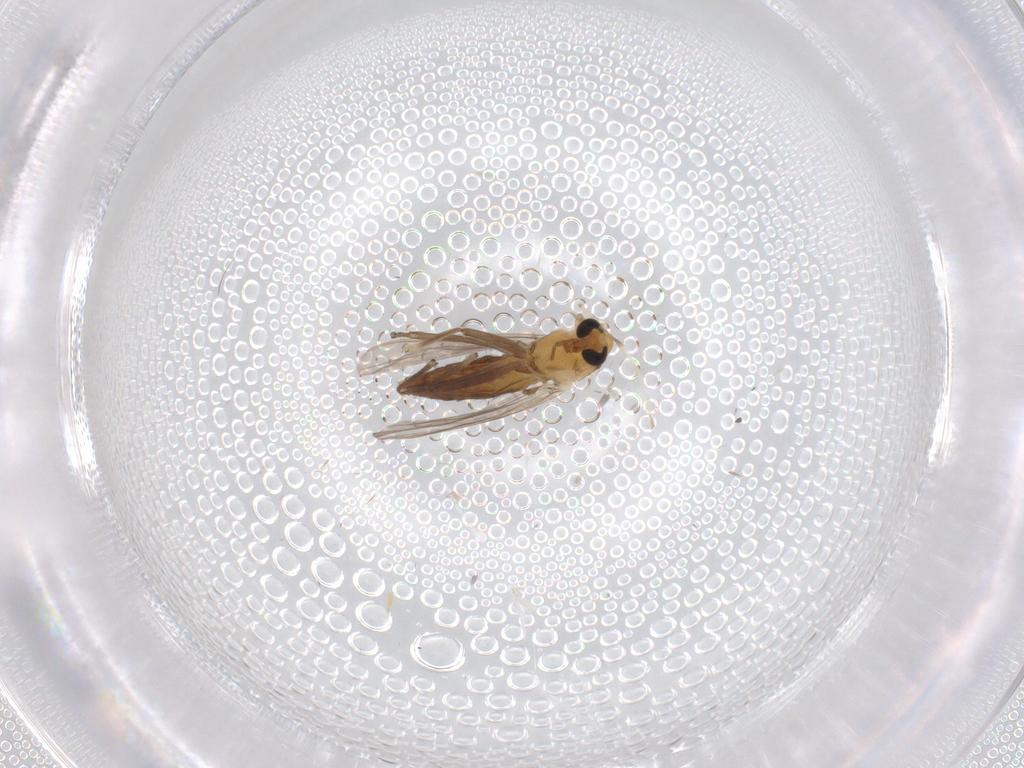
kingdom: Animalia
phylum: Arthropoda
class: Insecta
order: Diptera
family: Chironomidae
